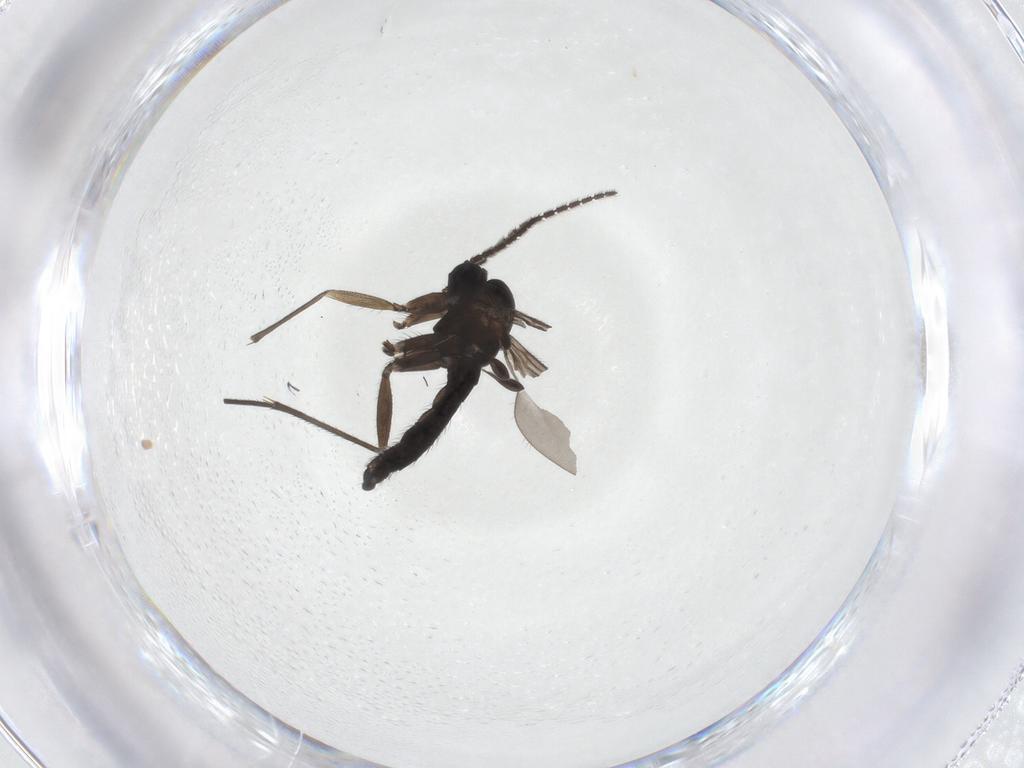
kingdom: Animalia
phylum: Arthropoda
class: Insecta
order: Diptera
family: Sciaridae
